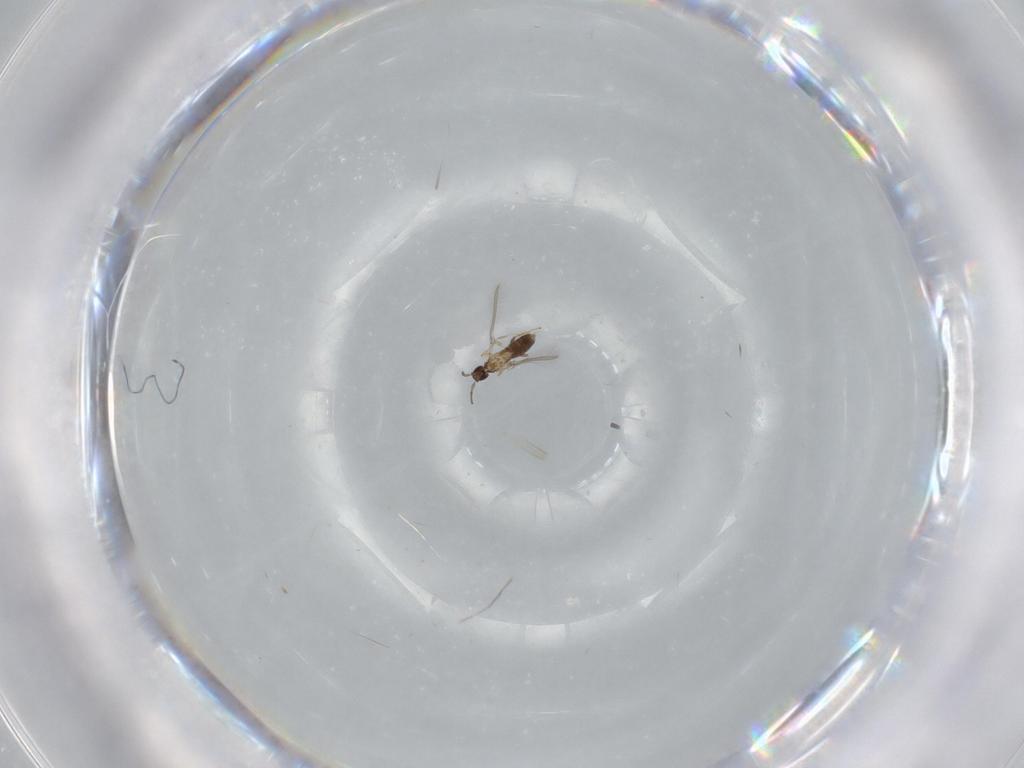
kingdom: Animalia
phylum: Arthropoda
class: Insecta
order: Hymenoptera
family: Mymaridae
